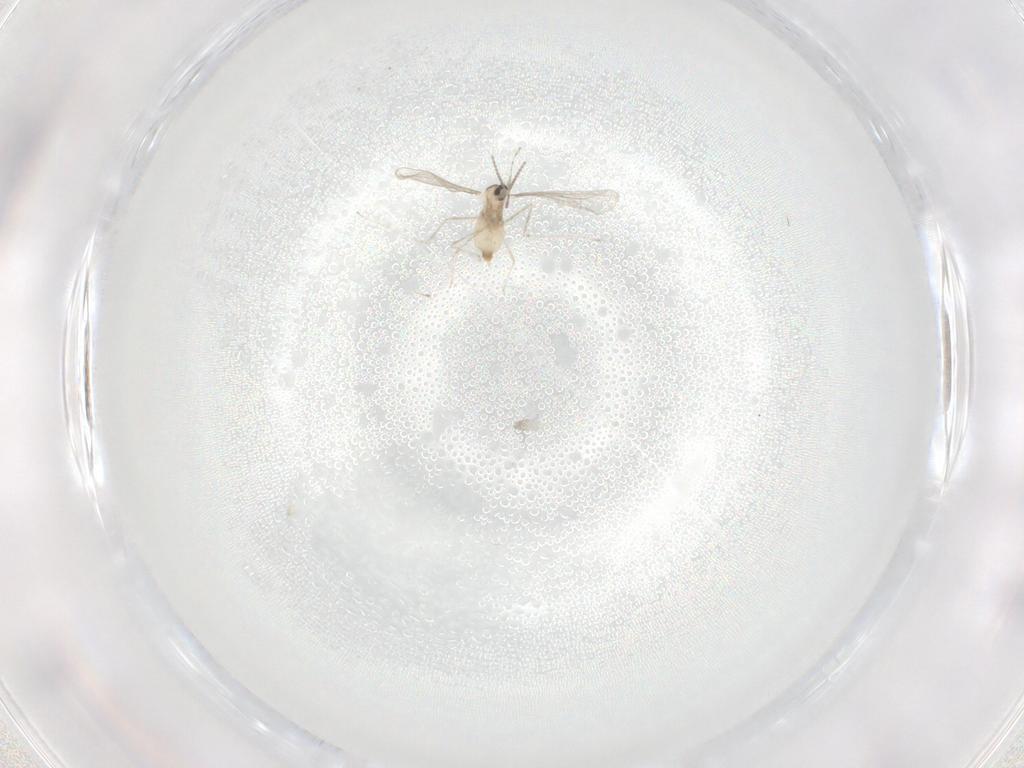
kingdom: Animalia
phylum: Arthropoda
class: Insecta
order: Diptera
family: Cecidomyiidae
